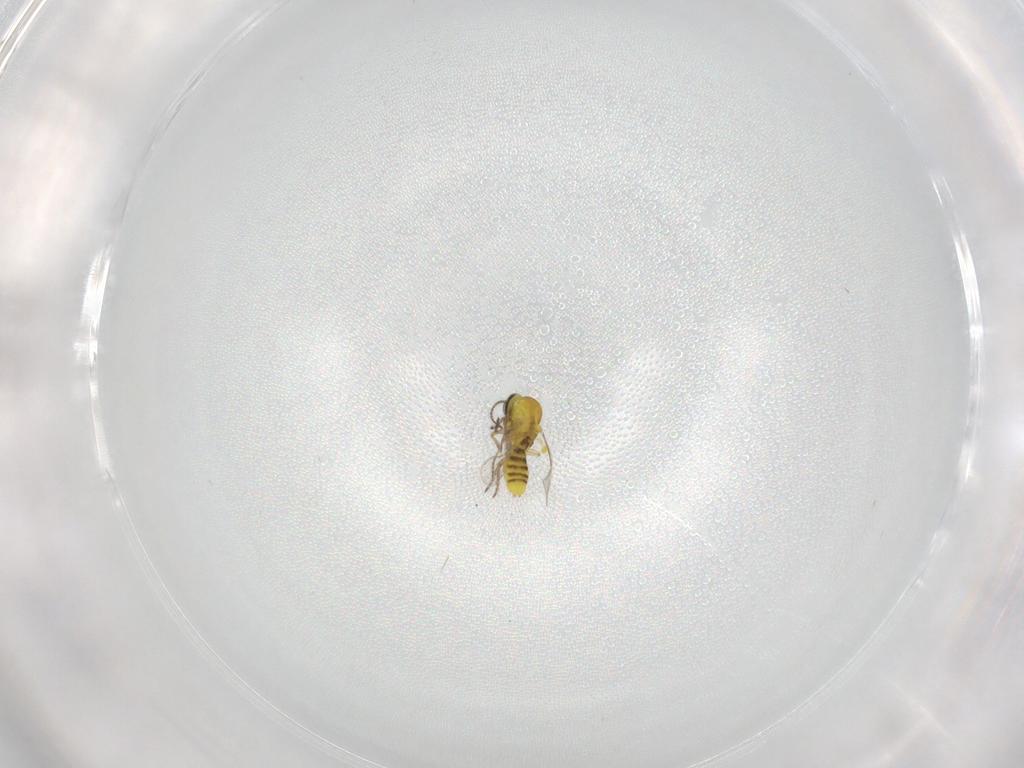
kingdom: Animalia
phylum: Arthropoda
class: Insecta
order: Diptera
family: Ceratopogonidae
